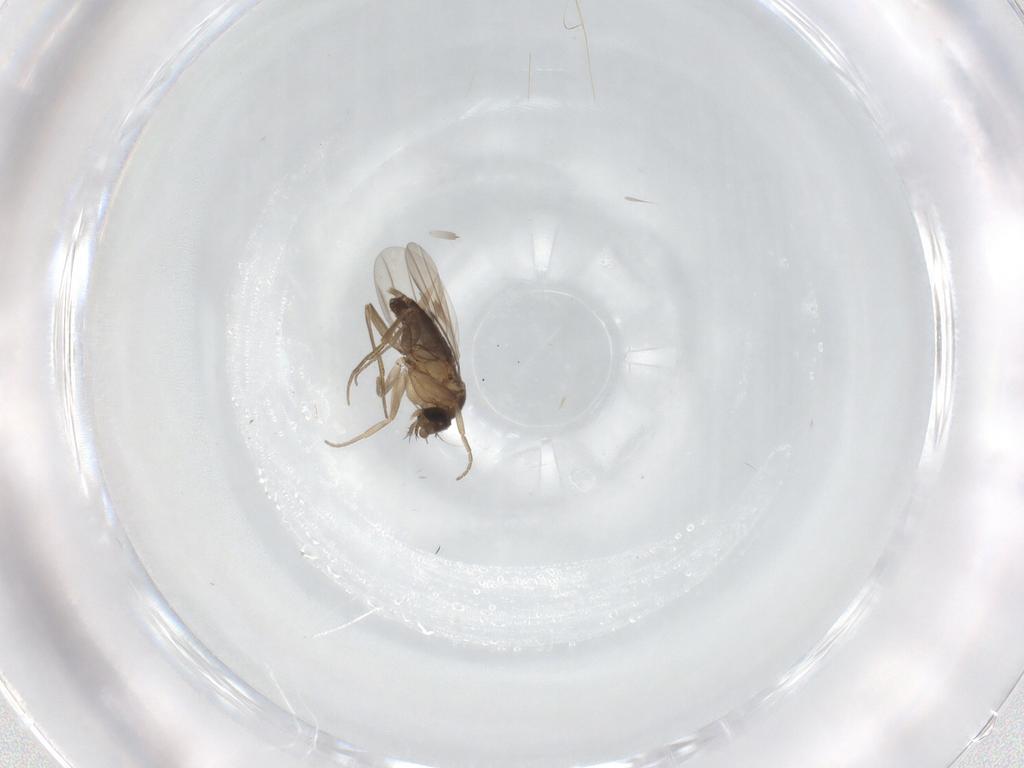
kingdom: Animalia
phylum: Arthropoda
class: Insecta
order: Diptera
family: Phoridae
